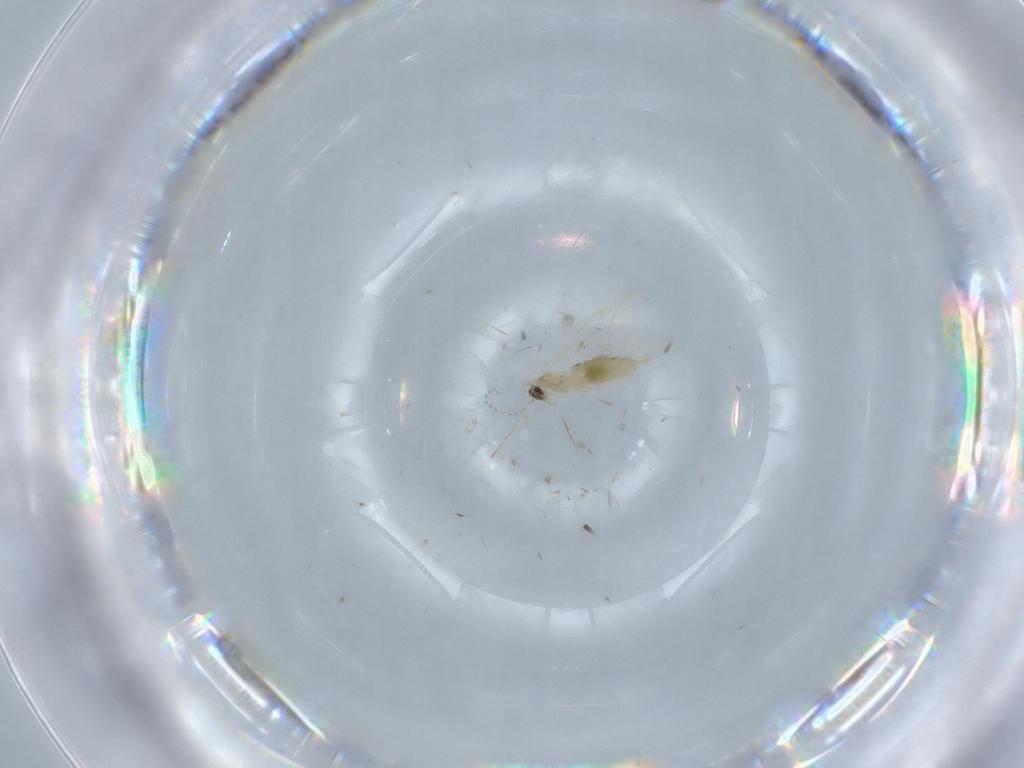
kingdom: Animalia
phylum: Arthropoda
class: Insecta
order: Diptera
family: Cecidomyiidae
